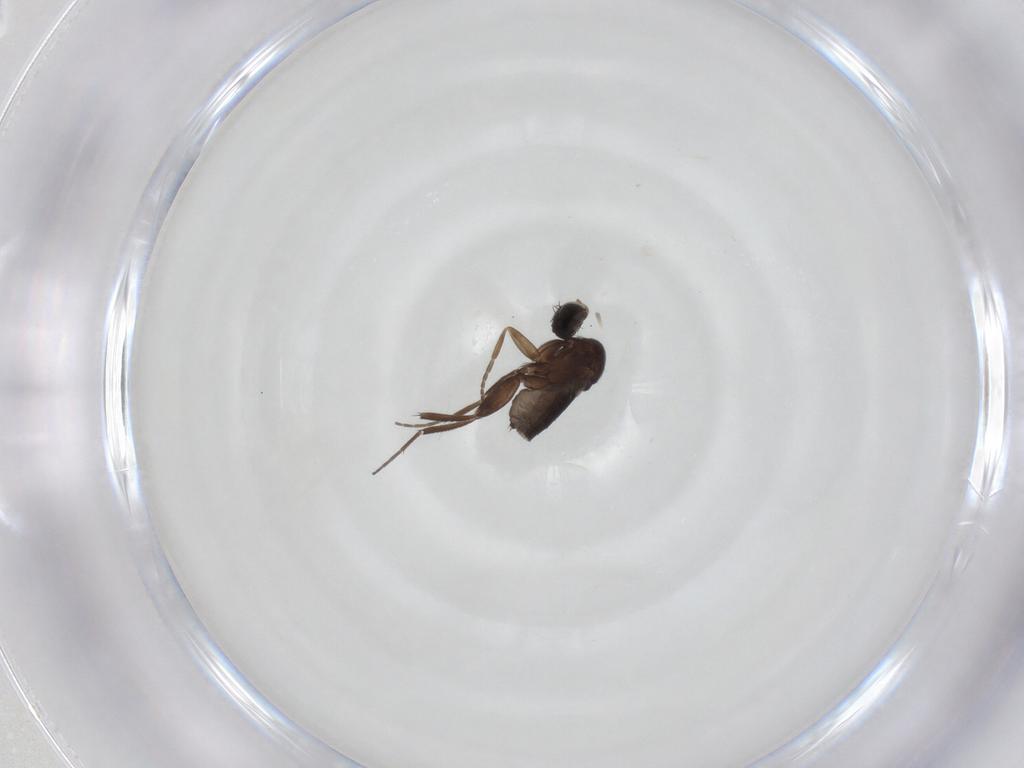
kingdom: Animalia
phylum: Arthropoda
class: Insecta
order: Diptera
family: Phoridae
